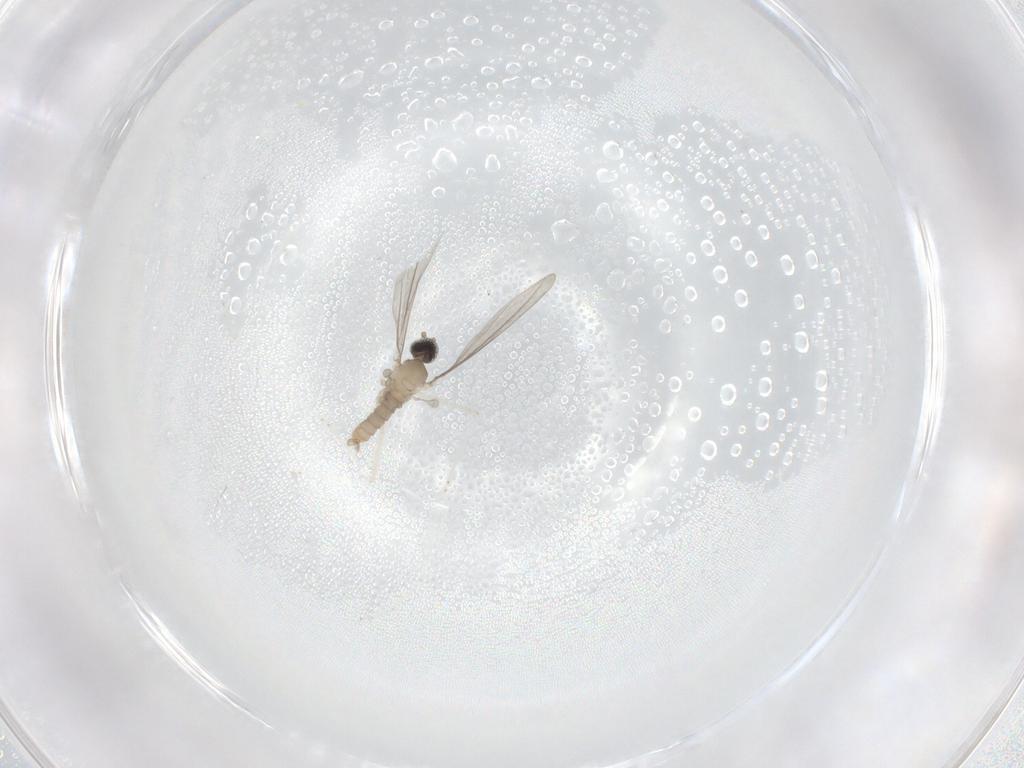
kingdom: Animalia
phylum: Arthropoda
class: Insecta
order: Diptera
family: Cecidomyiidae
